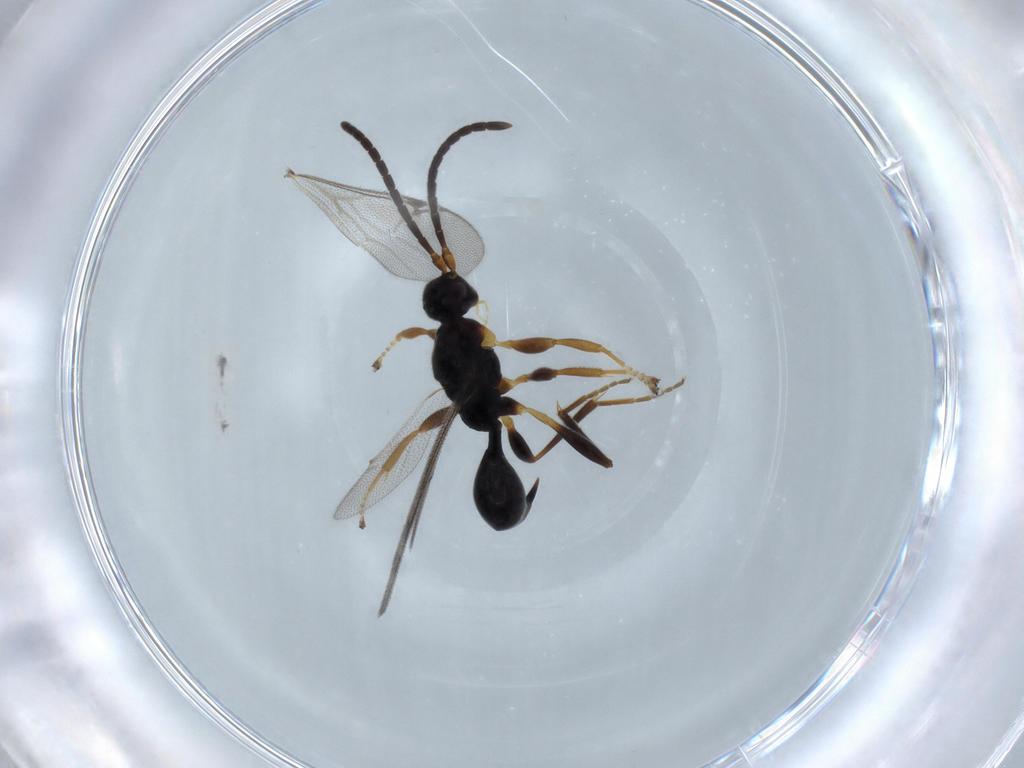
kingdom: Animalia
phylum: Arthropoda
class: Insecta
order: Hymenoptera
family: Proctotrupidae
